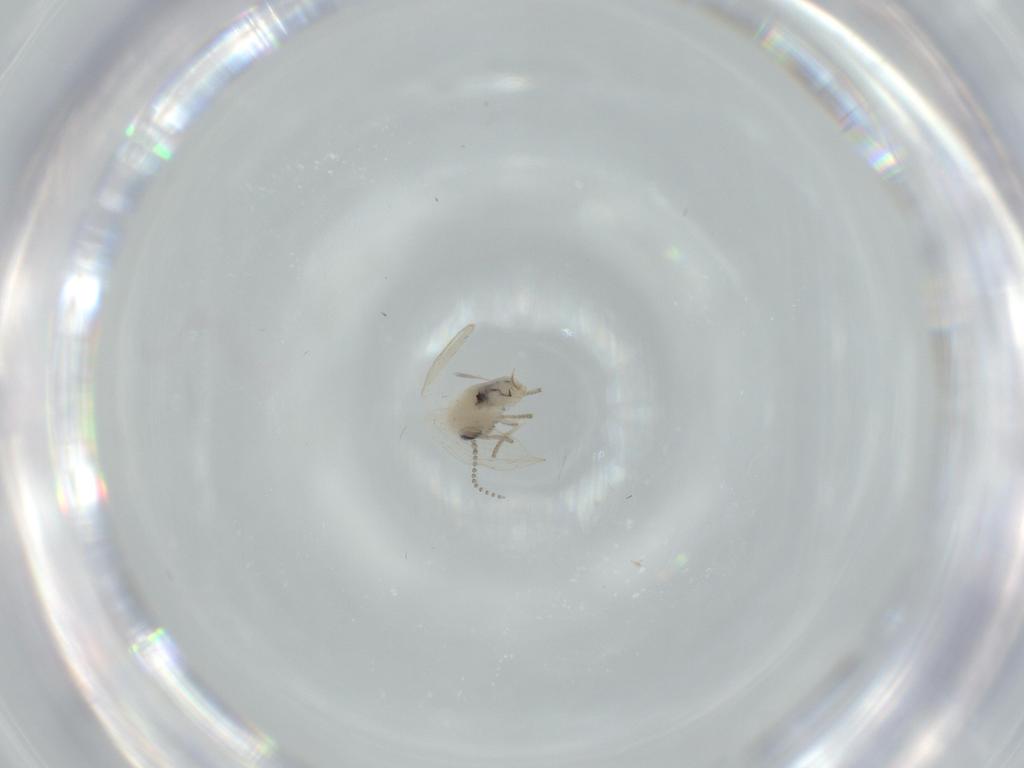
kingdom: Animalia
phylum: Arthropoda
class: Insecta
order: Diptera
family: Psychodidae
